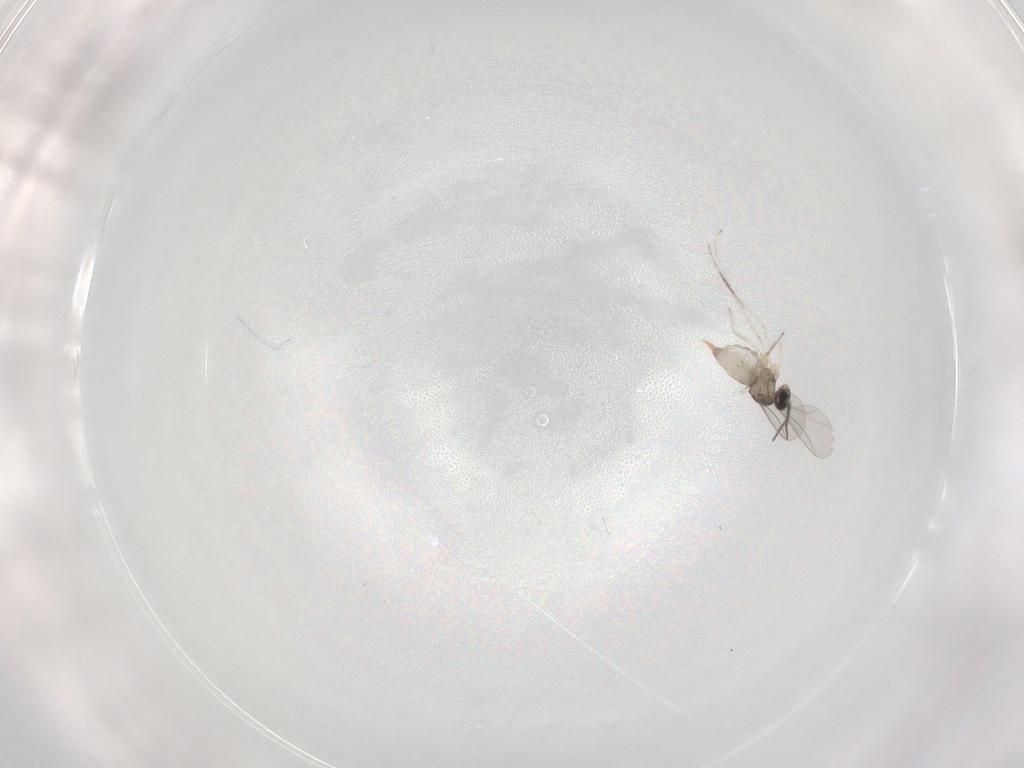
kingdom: Animalia
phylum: Arthropoda
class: Insecta
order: Diptera
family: Cecidomyiidae
